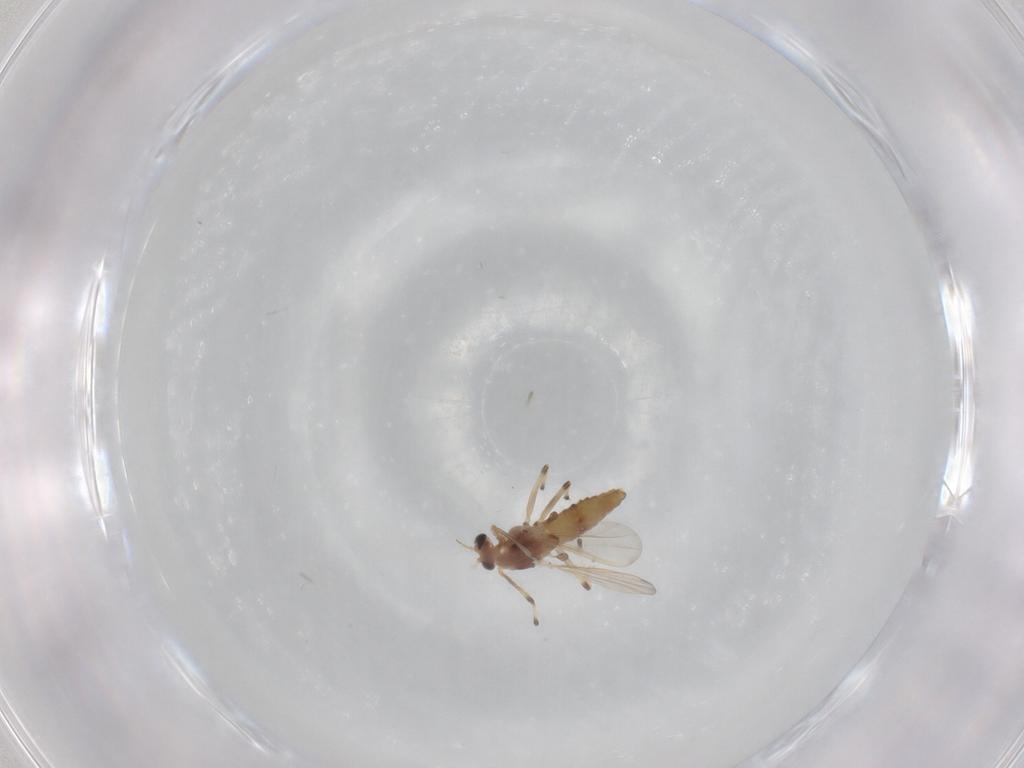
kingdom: Animalia
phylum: Arthropoda
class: Insecta
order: Diptera
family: Chironomidae
